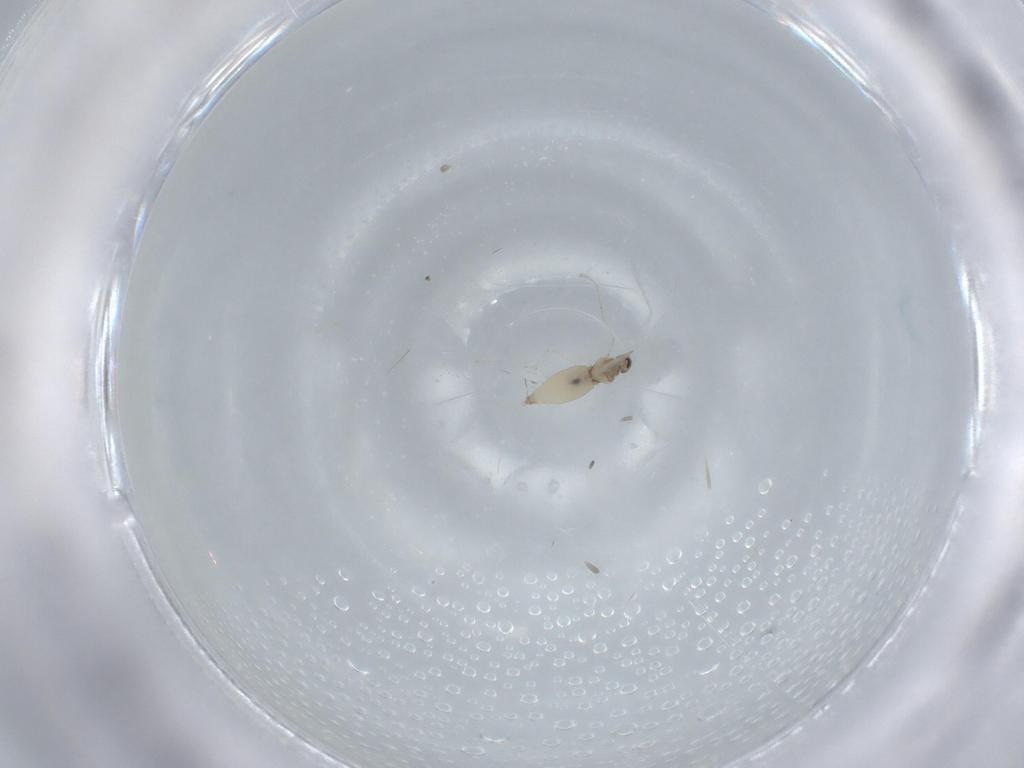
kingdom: Animalia
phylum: Arthropoda
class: Insecta
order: Diptera
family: Cecidomyiidae
